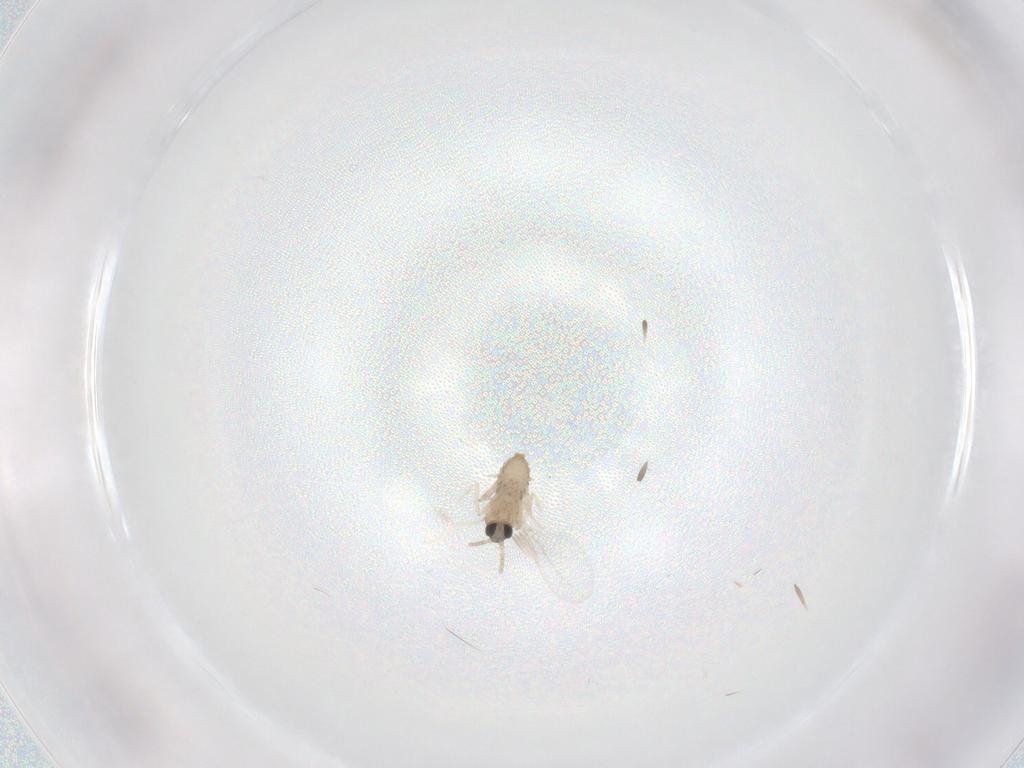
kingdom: Animalia
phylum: Arthropoda
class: Insecta
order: Diptera
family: Cecidomyiidae
